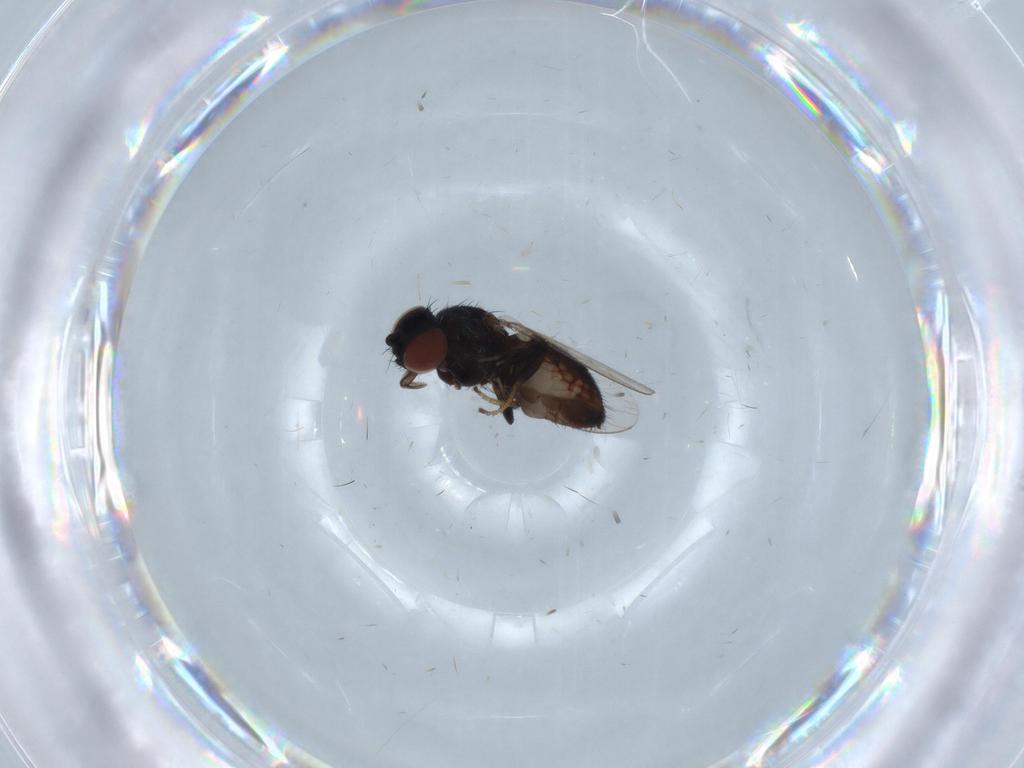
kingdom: Animalia
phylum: Arthropoda
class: Insecta
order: Diptera
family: Milichiidae
